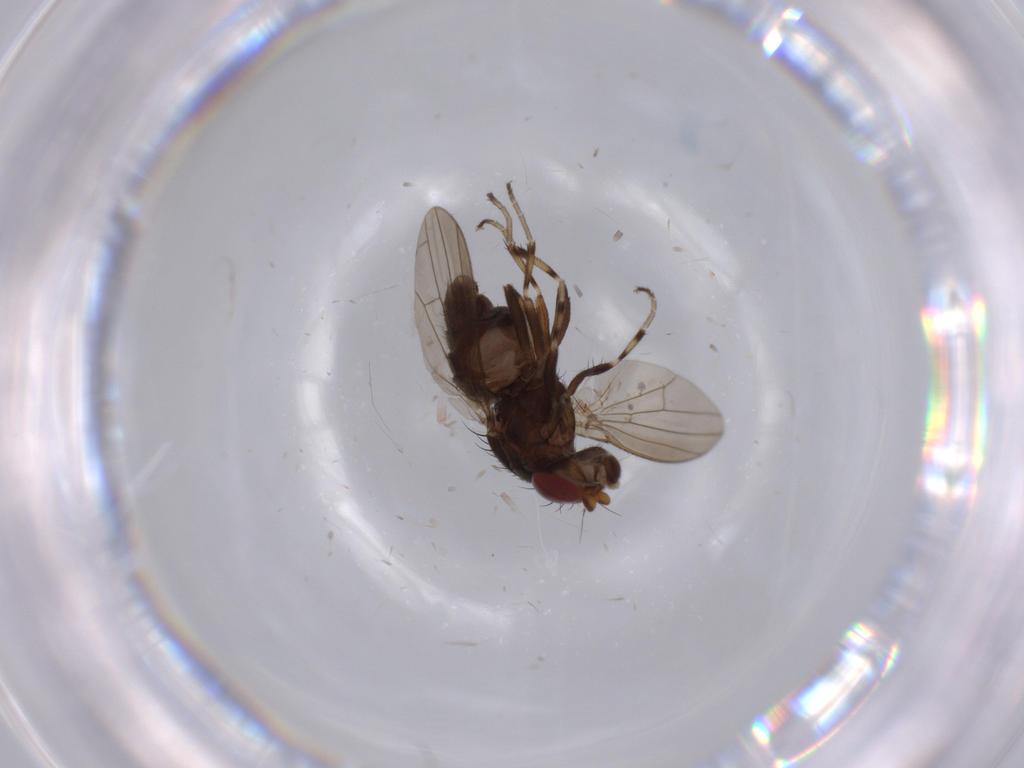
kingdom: Animalia
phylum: Arthropoda
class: Insecta
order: Diptera
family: Heleomyzidae
